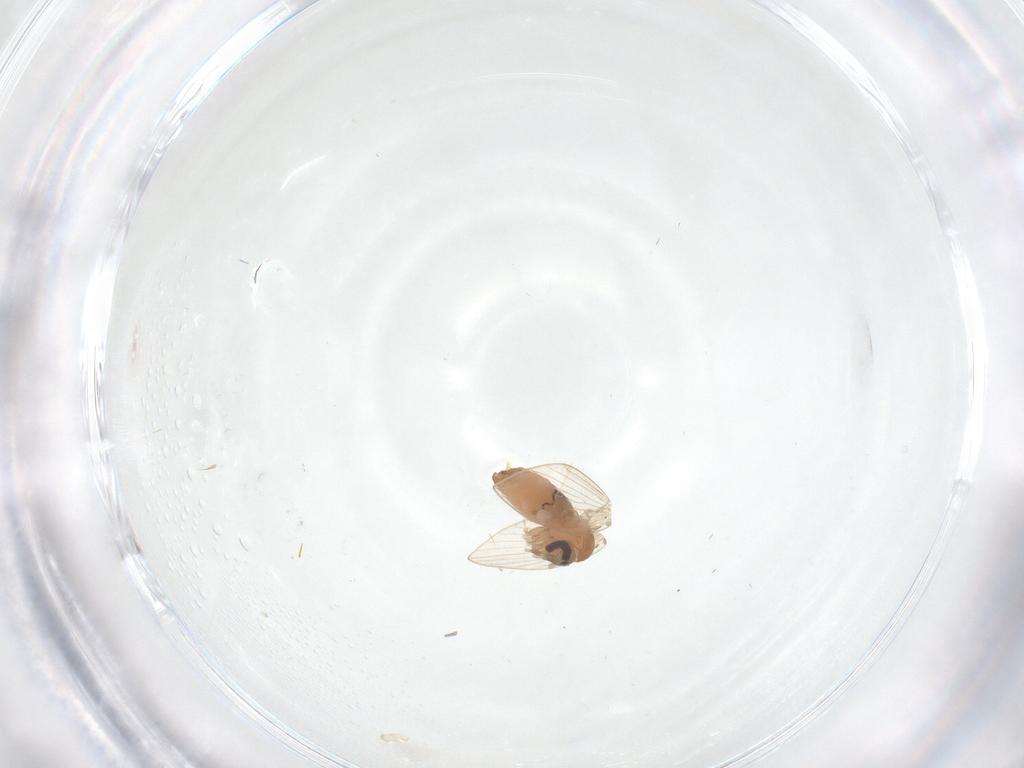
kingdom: Animalia
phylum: Arthropoda
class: Insecta
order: Diptera
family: Psychodidae
